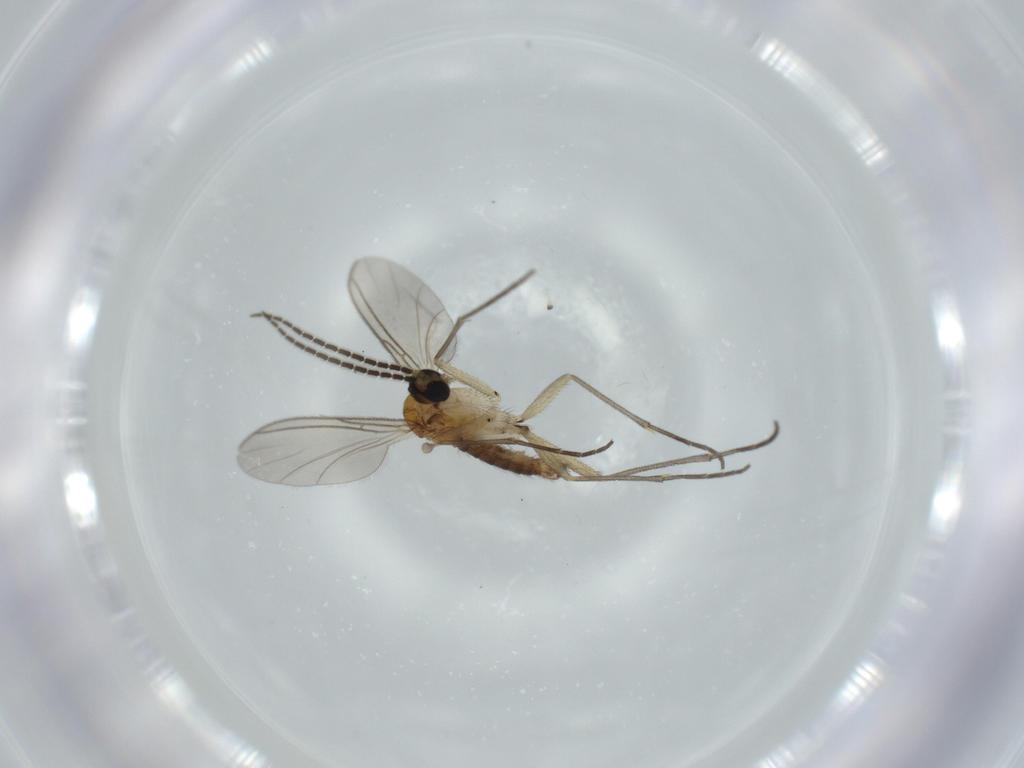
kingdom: Animalia
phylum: Arthropoda
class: Insecta
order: Diptera
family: Sciaridae
